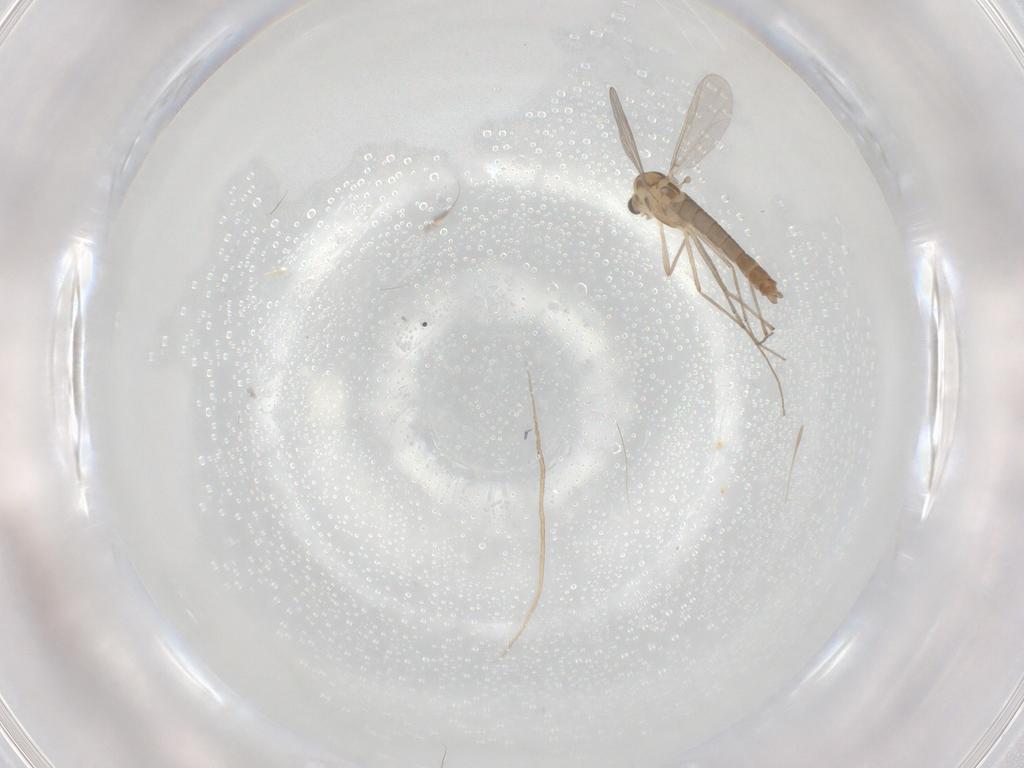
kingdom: Animalia
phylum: Arthropoda
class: Insecta
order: Diptera
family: Chironomidae
